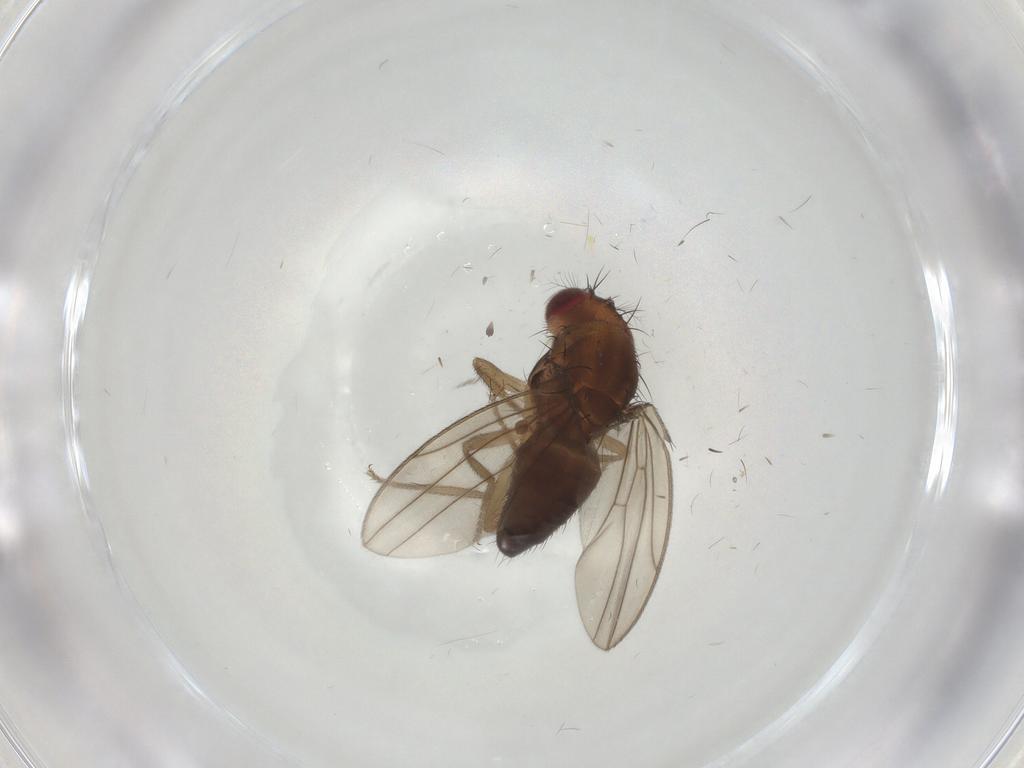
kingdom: Animalia
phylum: Arthropoda
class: Insecta
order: Diptera
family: Drosophilidae
